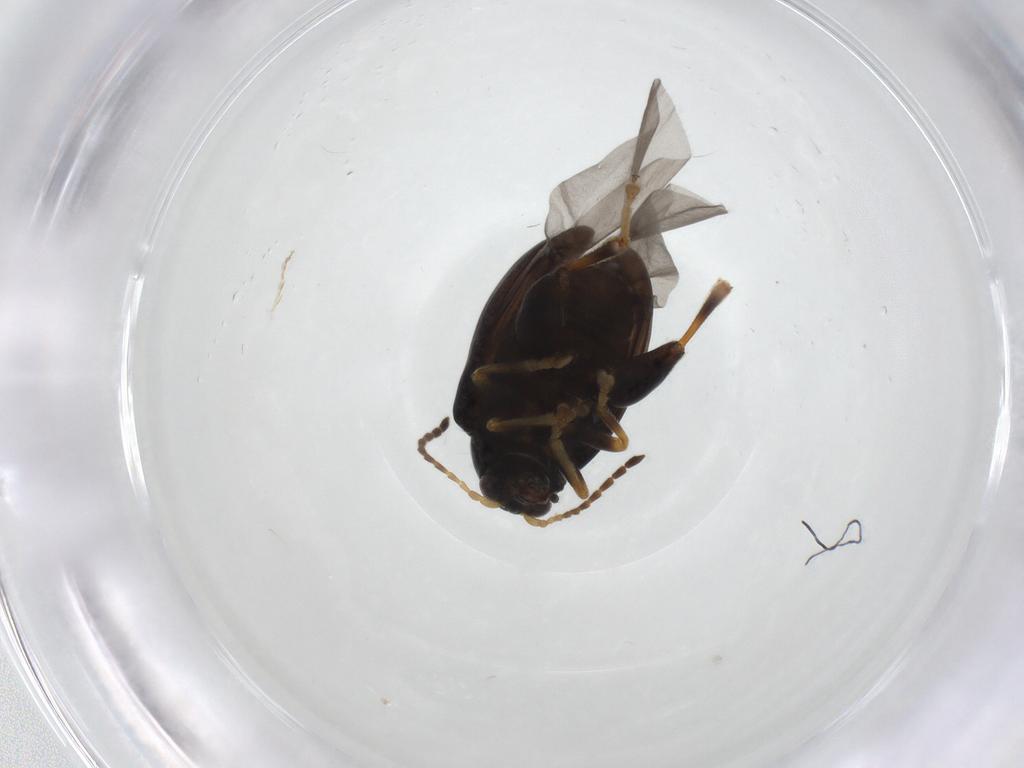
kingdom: Animalia
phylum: Arthropoda
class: Insecta
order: Coleoptera
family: Chrysomelidae
